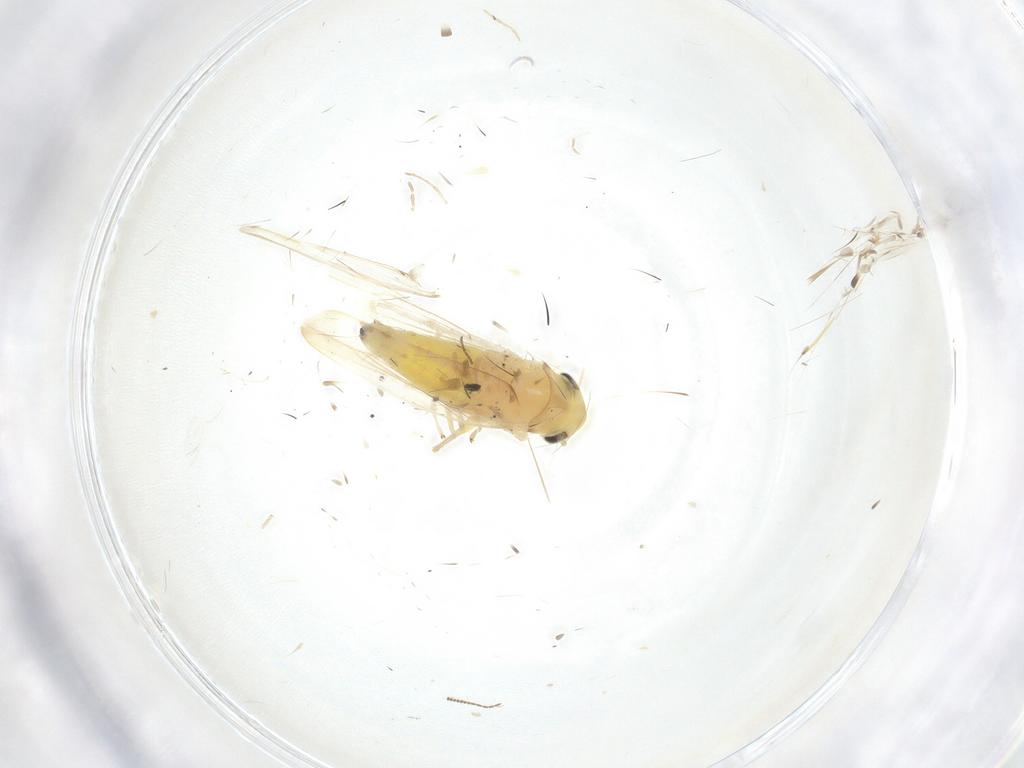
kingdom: Animalia
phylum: Arthropoda
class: Insecta
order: Hemiptera
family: Cicadellidae
